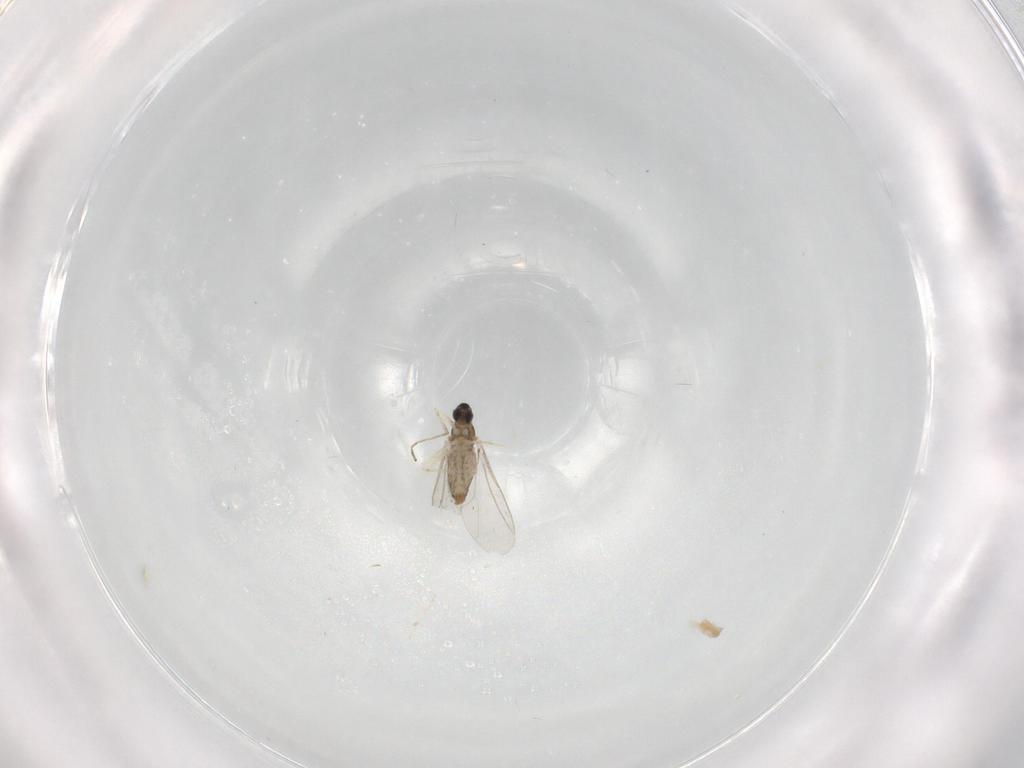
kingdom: Animalia
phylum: Arthropoda
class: Insecta
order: Diptera
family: Cecidomyiidae
